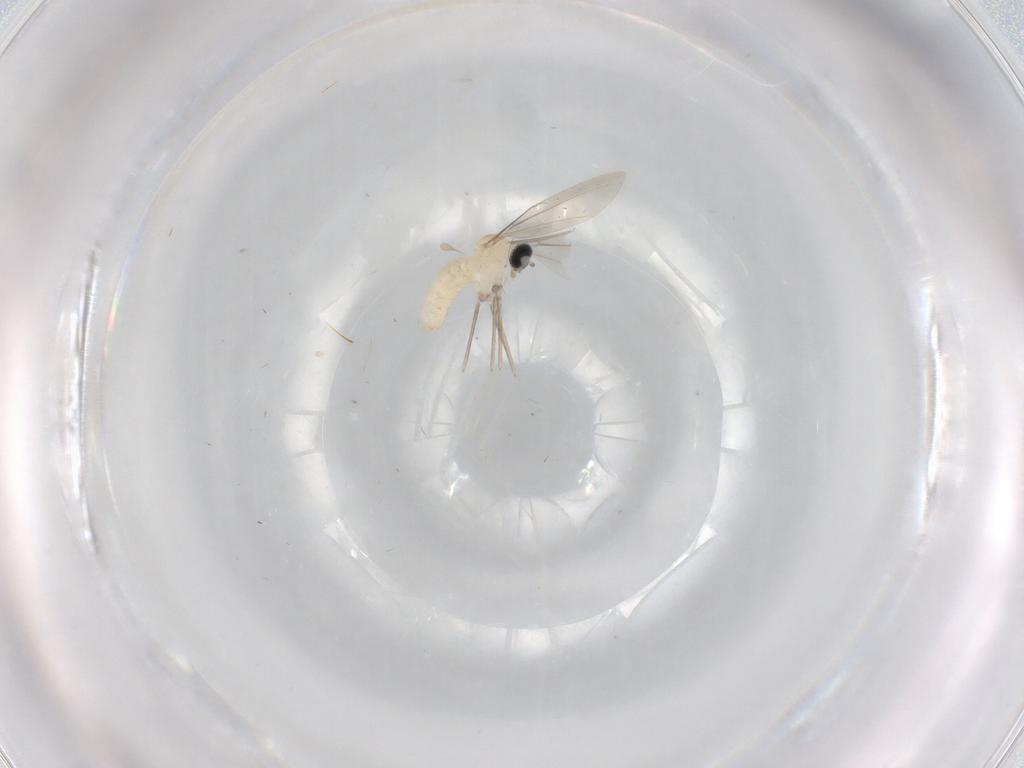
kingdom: Animalia
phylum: Arthropoda
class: Insecta
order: Diptera
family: Cecidomyiidae
